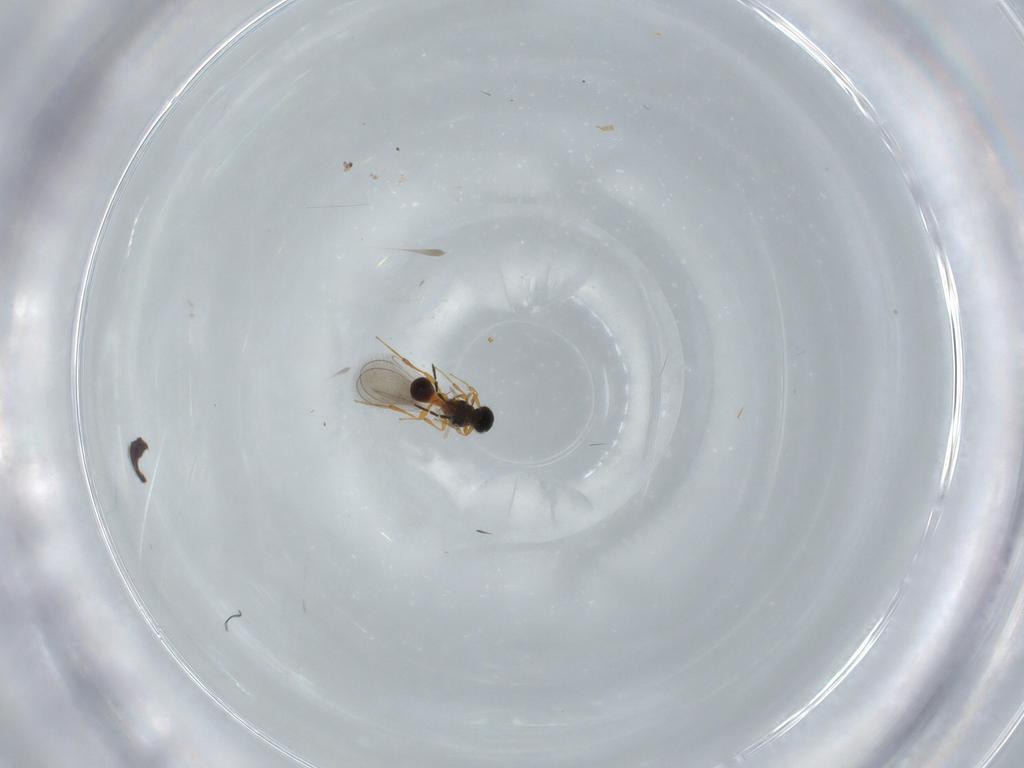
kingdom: Animalia
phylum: Arthropoda
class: Insecta
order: Hymenoptera
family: Platygastridae
